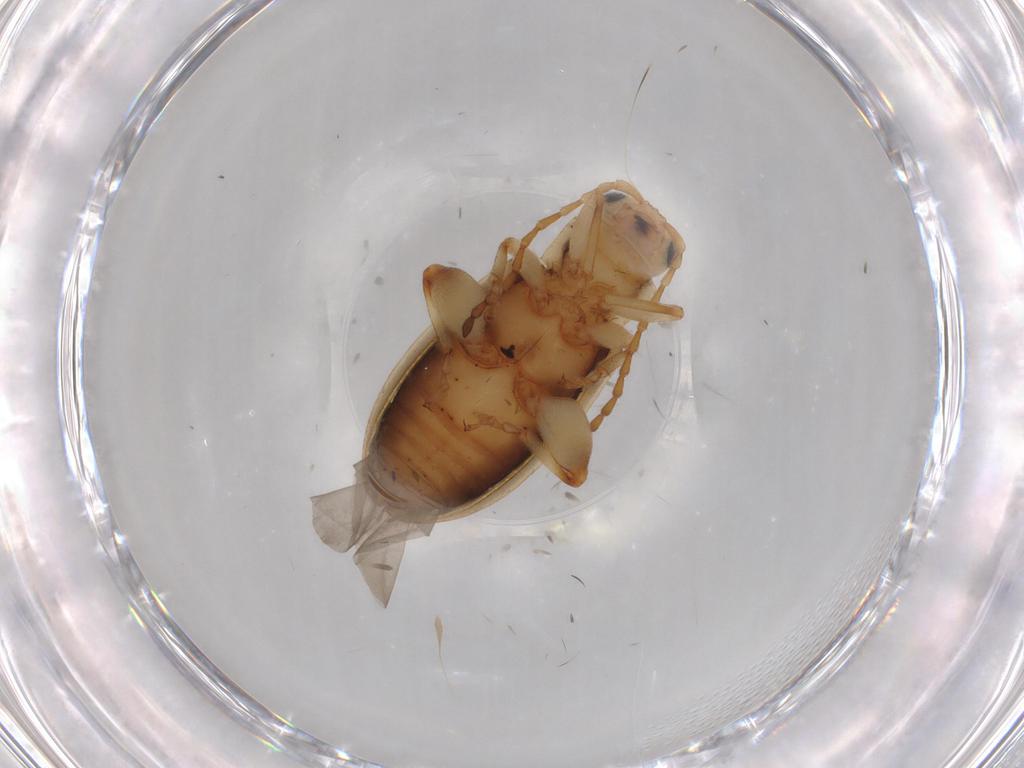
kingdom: Animalia
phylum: Arthropoda
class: Insecta
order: Coleoptera
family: Chrysomelidae
